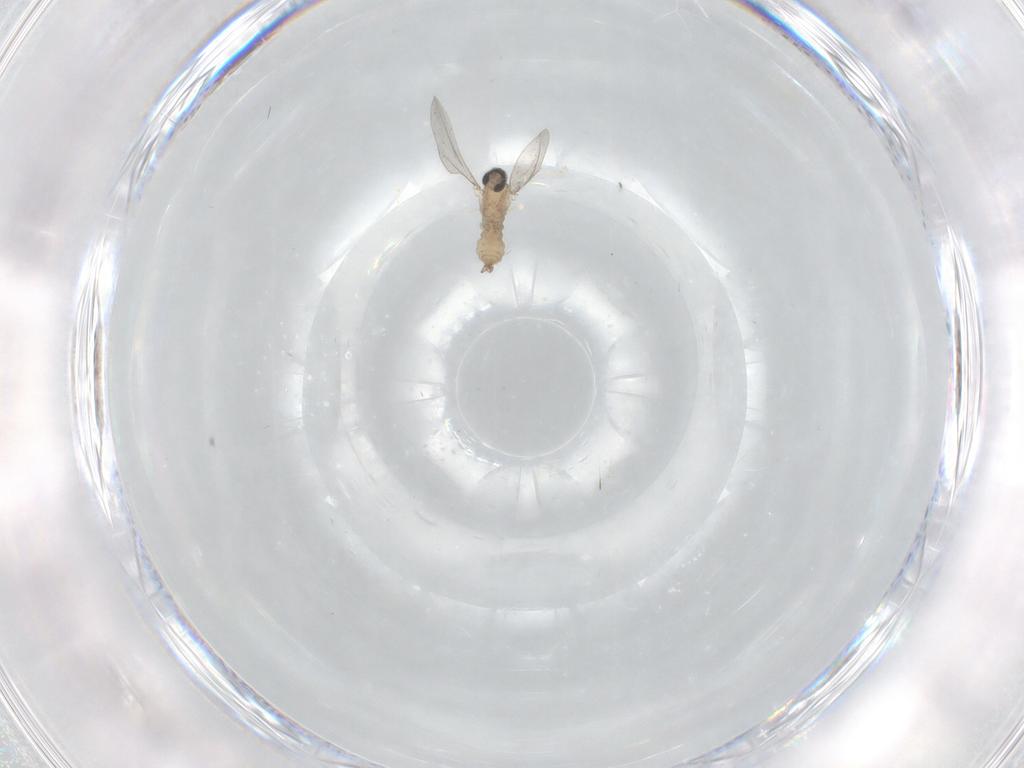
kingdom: Animalia
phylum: Arthropoda
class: Insecta
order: Diptera
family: Cecidomyiidae
